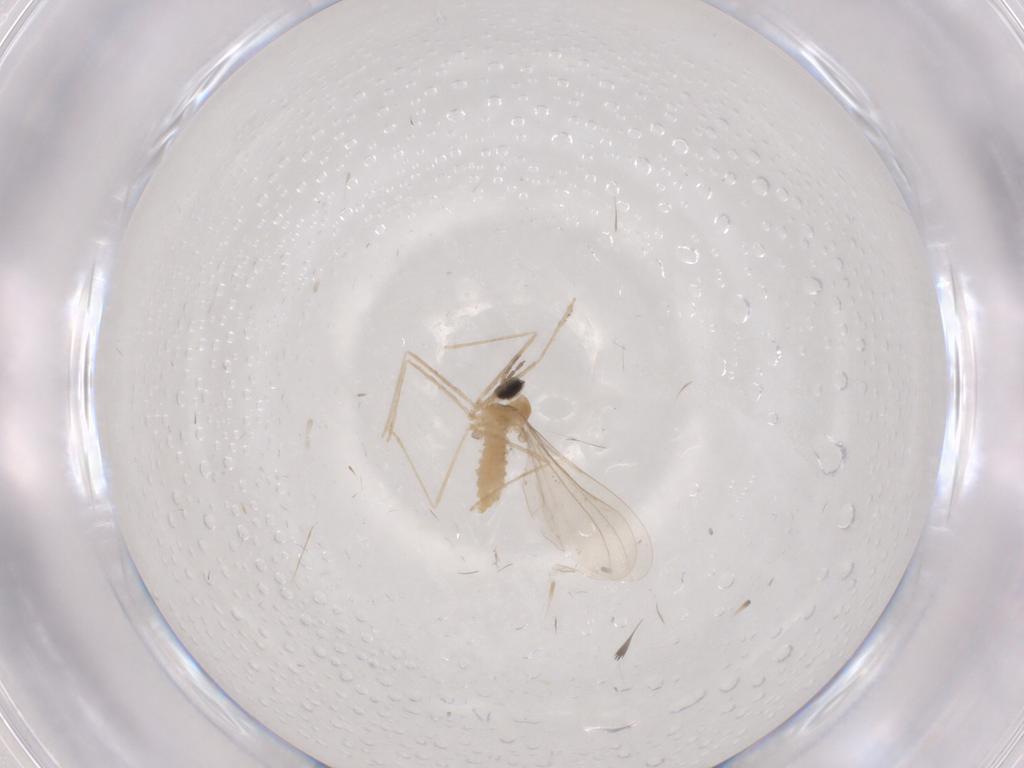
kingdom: Animalia
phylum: Arthropoda
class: Insecta
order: Diptera
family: Cecidomyiidae
